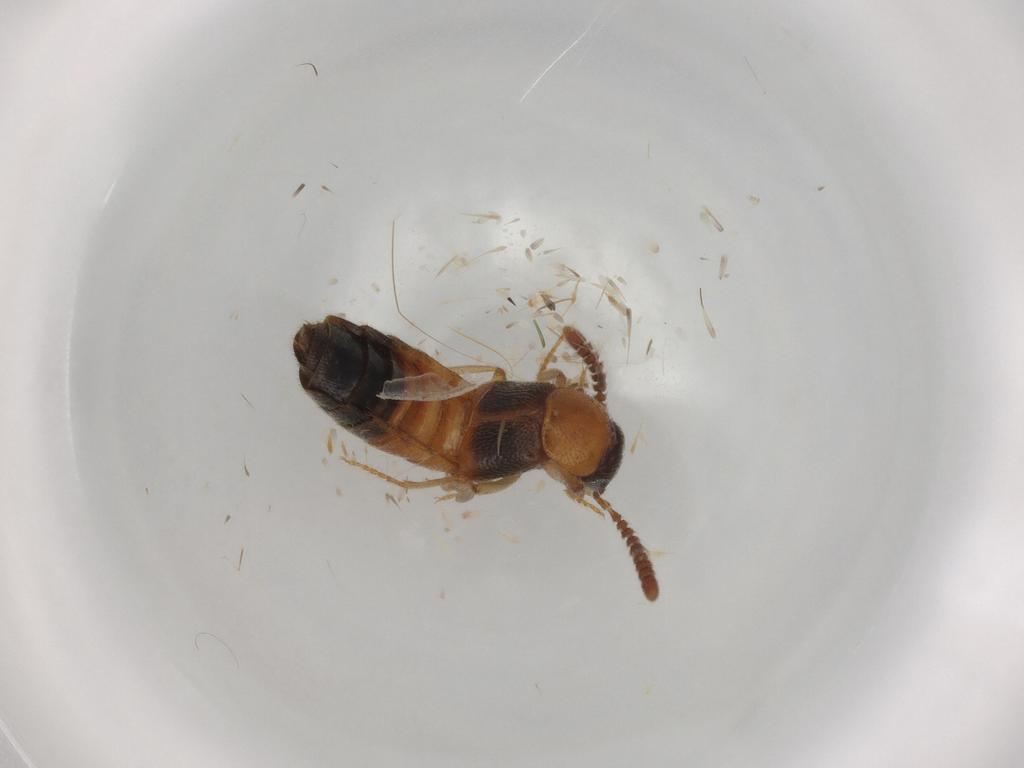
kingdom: Animalia
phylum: Arthropoda
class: Insecta
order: Coleoptera
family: Staphylinidae
